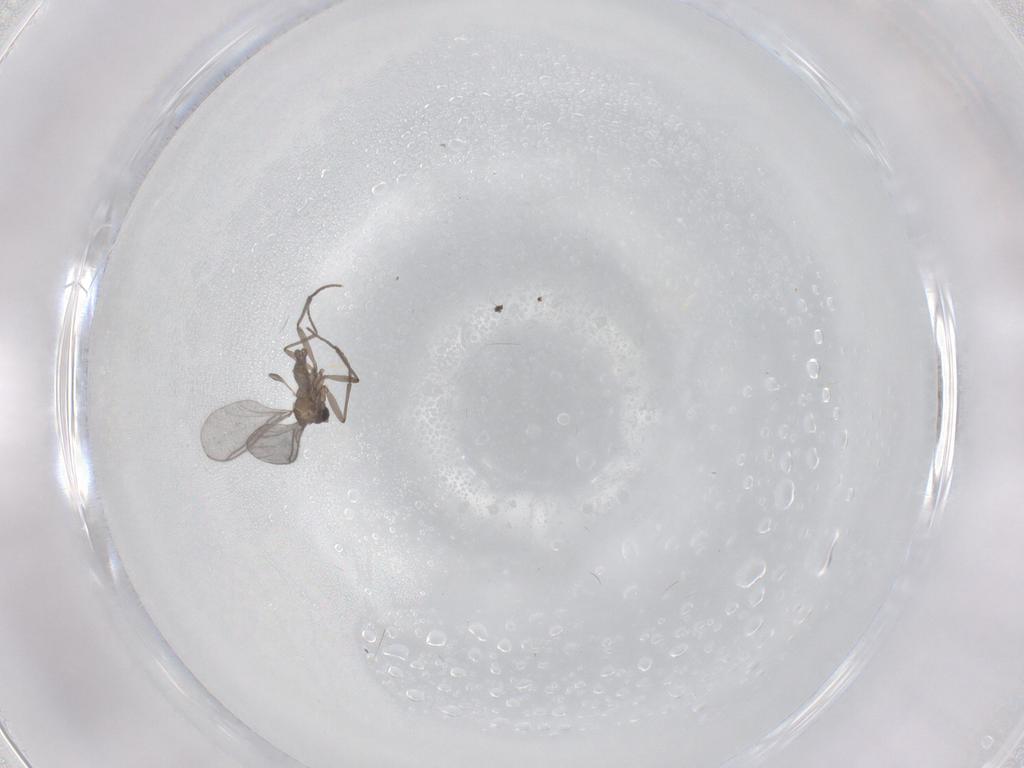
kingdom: Animalia
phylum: Arthropoda
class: Insecta
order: Diptera
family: Sciaridae
